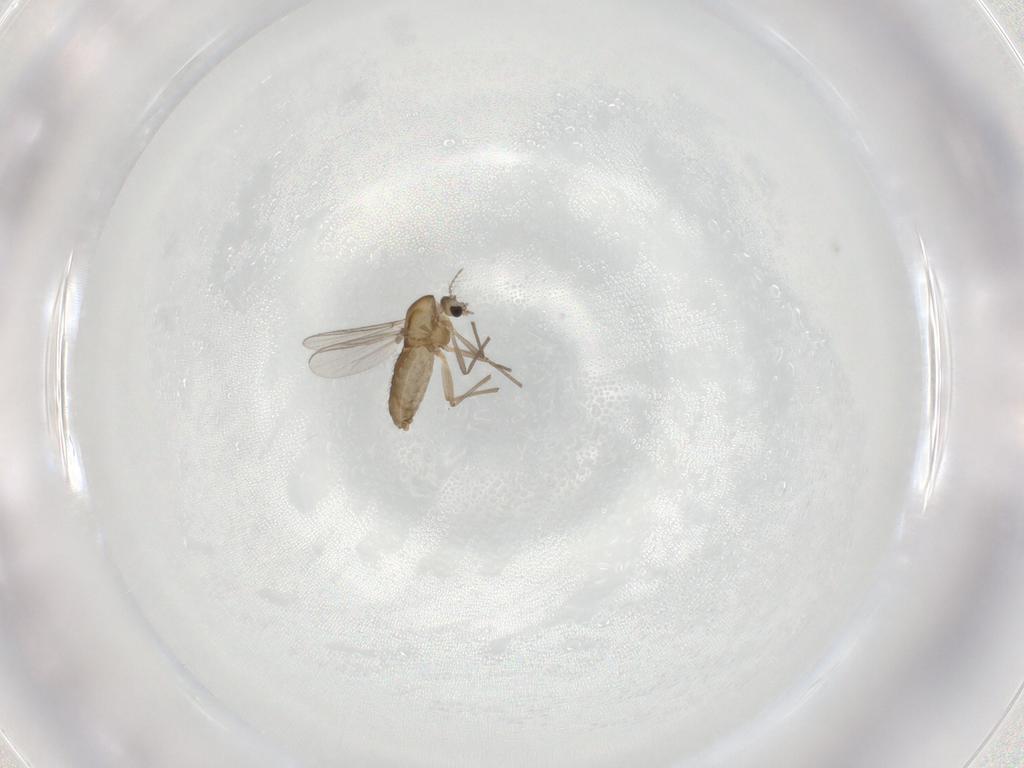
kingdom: Animalia
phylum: Arthropoda
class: Insecta
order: Diptera
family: Chironomidae
